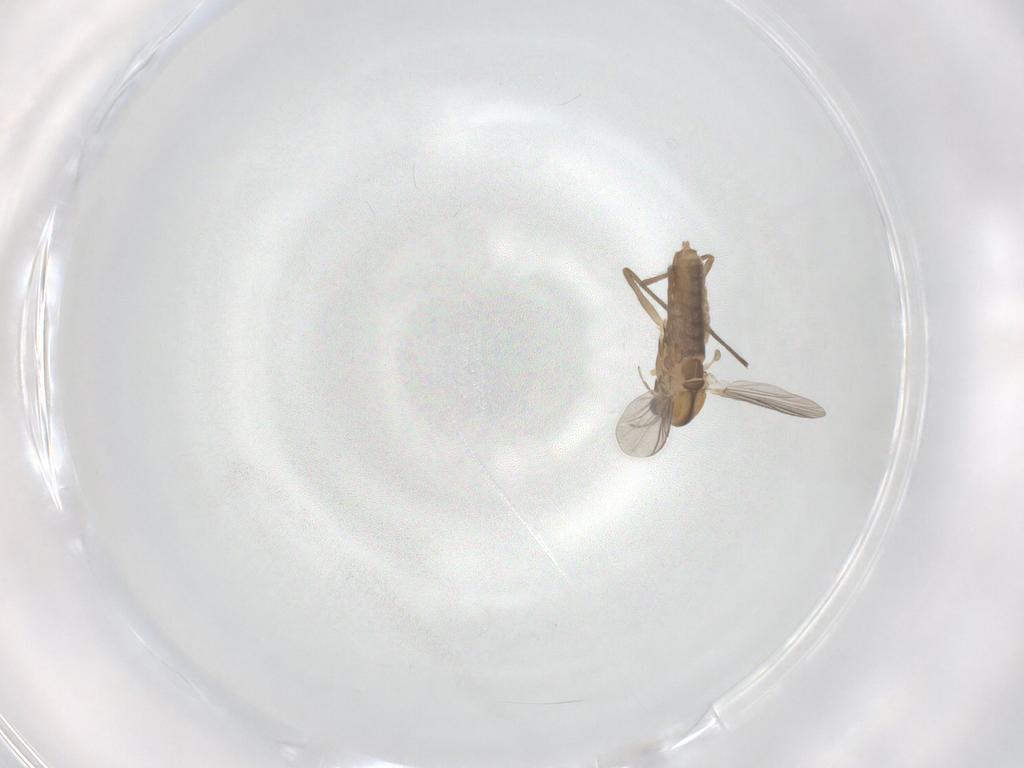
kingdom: Animalia
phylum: Arthropoda
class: Insecta
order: Diptera
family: Chironomidae
